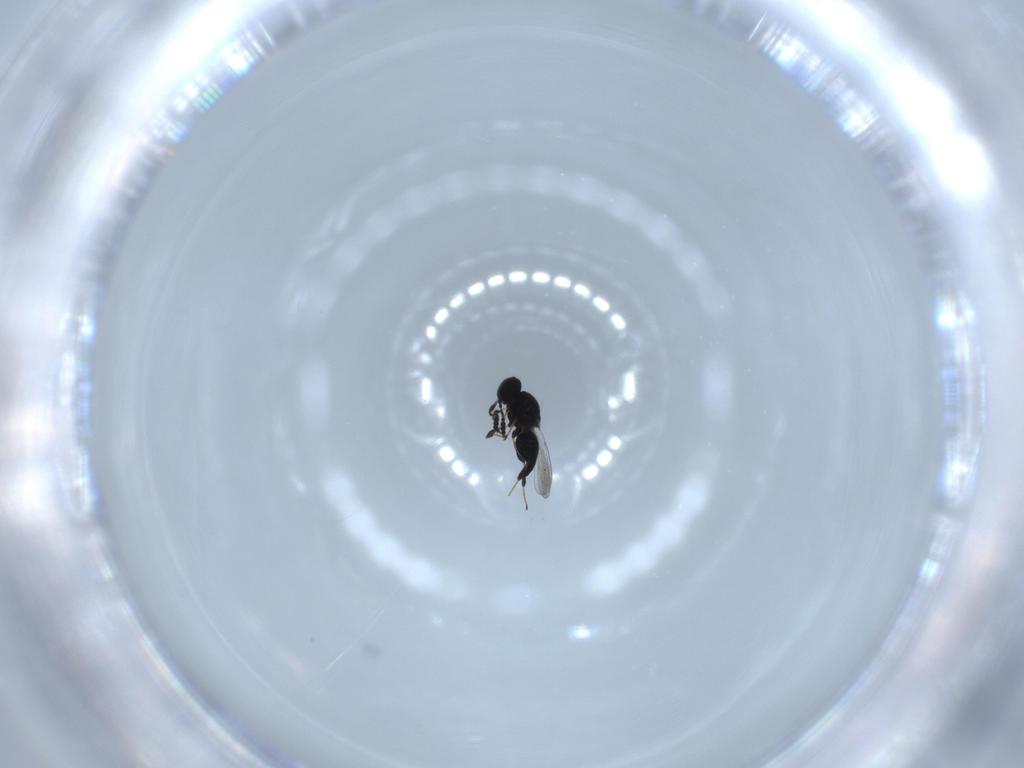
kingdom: Animalia
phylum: Arthropoda
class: Insecta
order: Hymenoptera
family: Platygastridae
